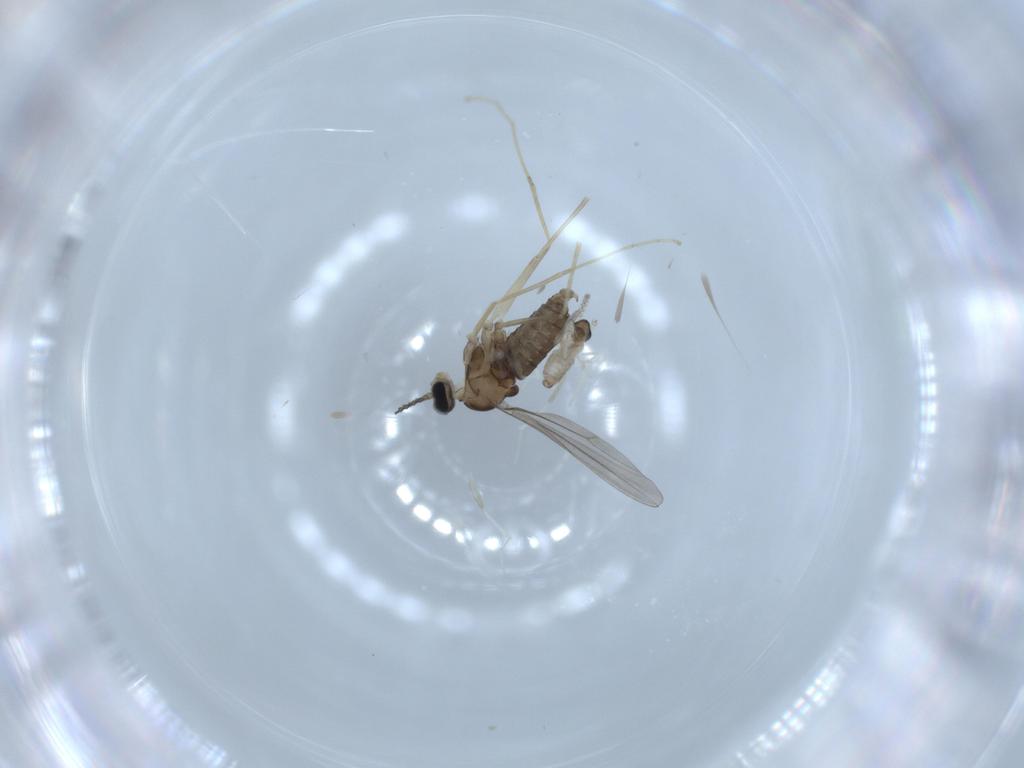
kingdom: Animalia
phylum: Arthropoda
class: Insecta
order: Diptera
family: Cecidomyiidae
